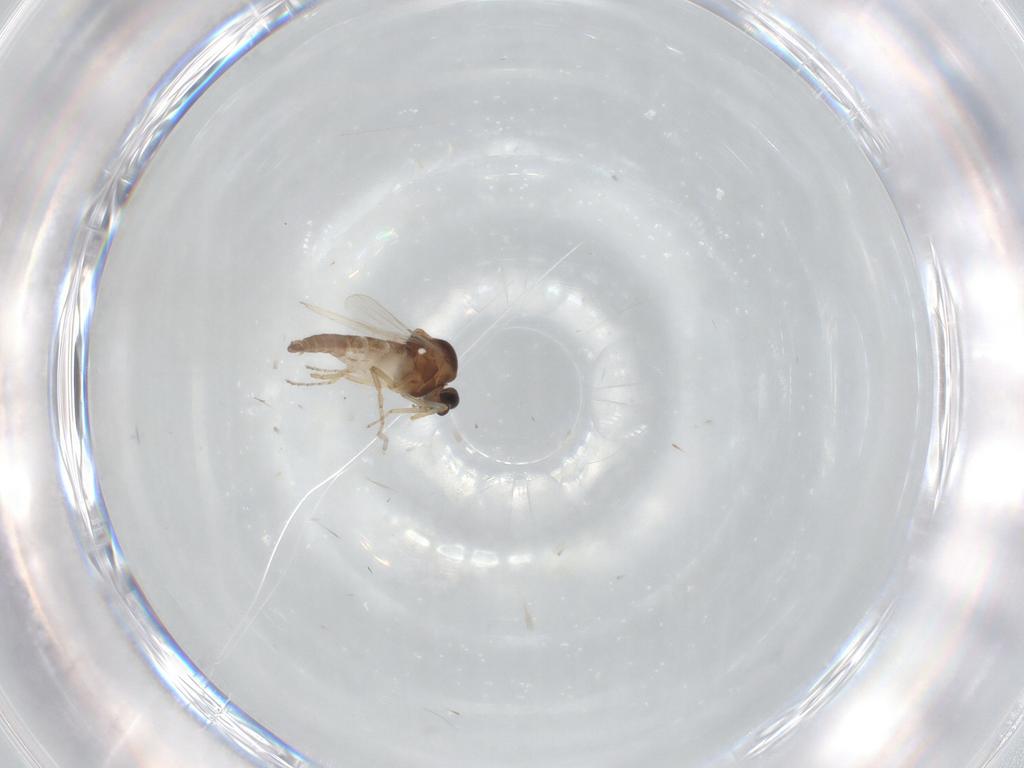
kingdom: Animalia
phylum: Arthropoda
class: Insecta
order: Diptera
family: Ceratopogonidae
